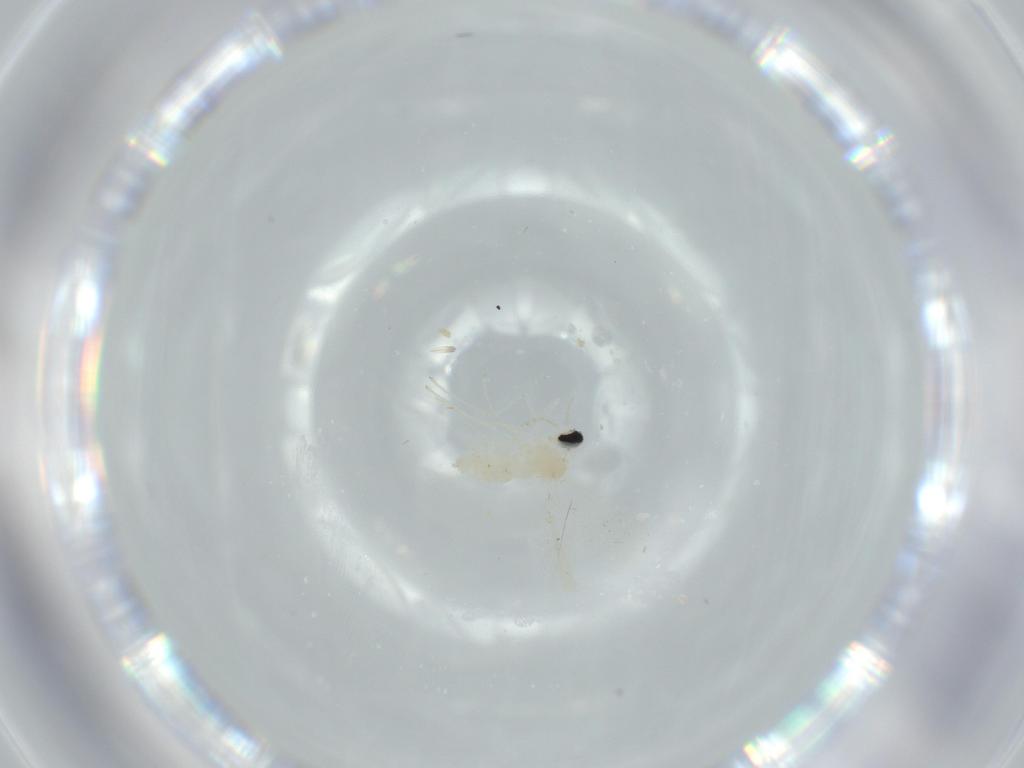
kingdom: Animalia
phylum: Arthropoda
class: Insecta
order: Diptera
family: Cecidomyiidae
